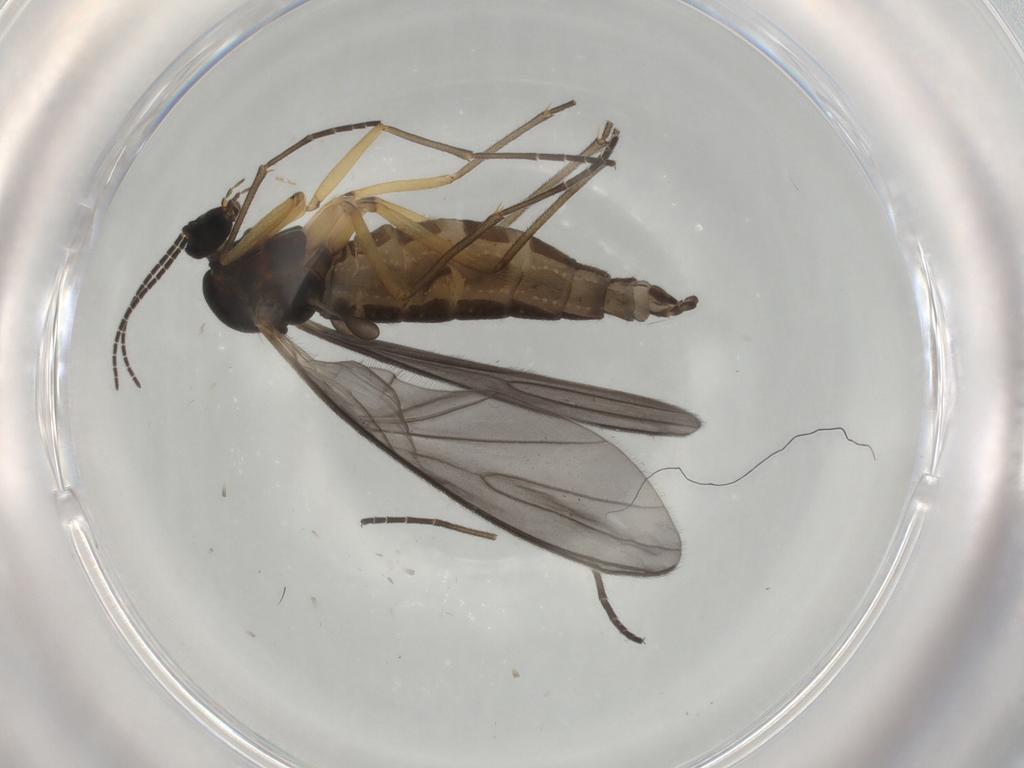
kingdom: Animalia
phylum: Arthropoda
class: Insecta
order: Diptera
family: Sciaridae
